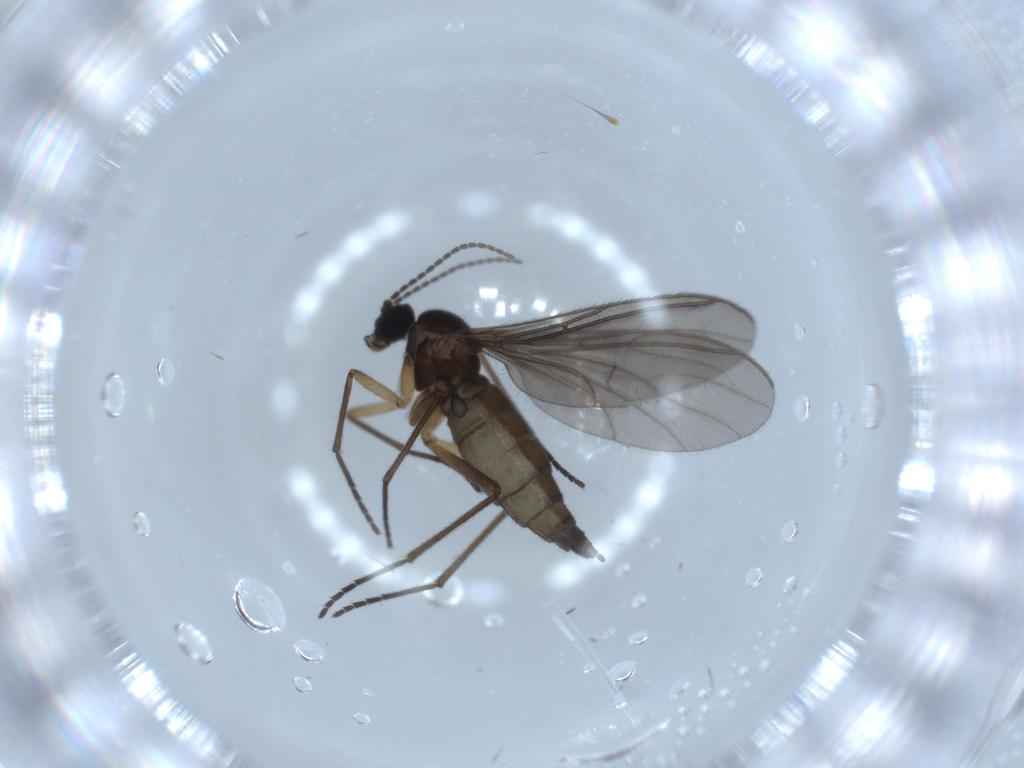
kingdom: Animalia
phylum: Arthropoda
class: Insecta
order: Diptera
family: Sciaridae
